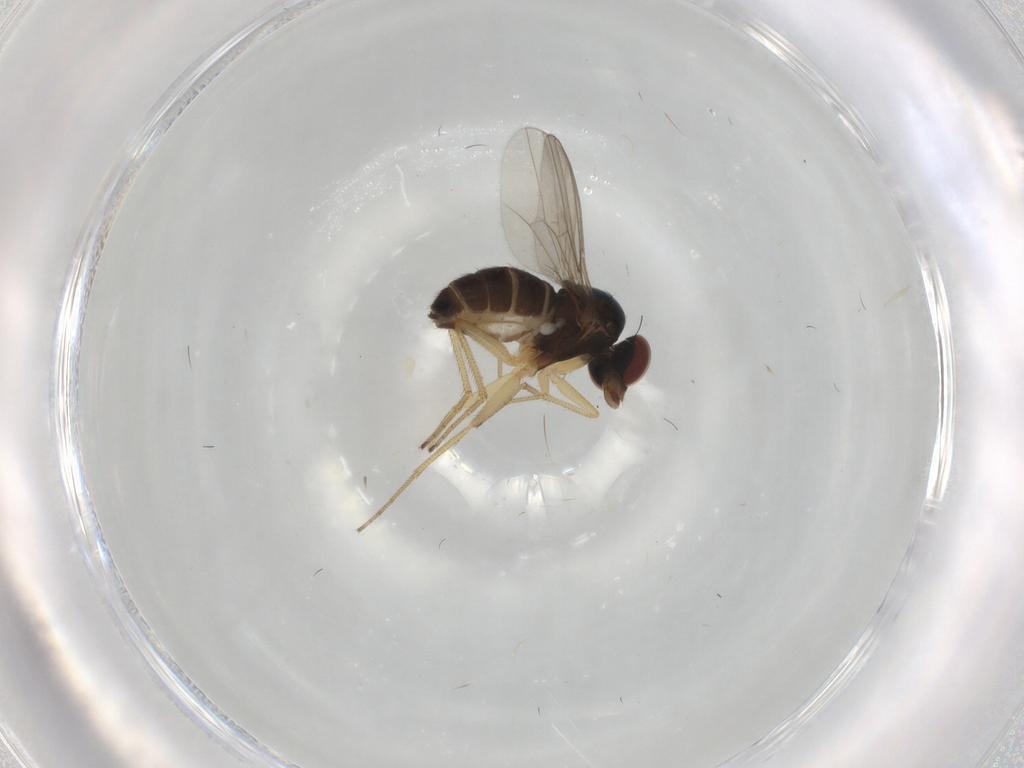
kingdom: Animalia
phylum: Arthropoda
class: Insecta
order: Diptera
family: Dolichopodidae
